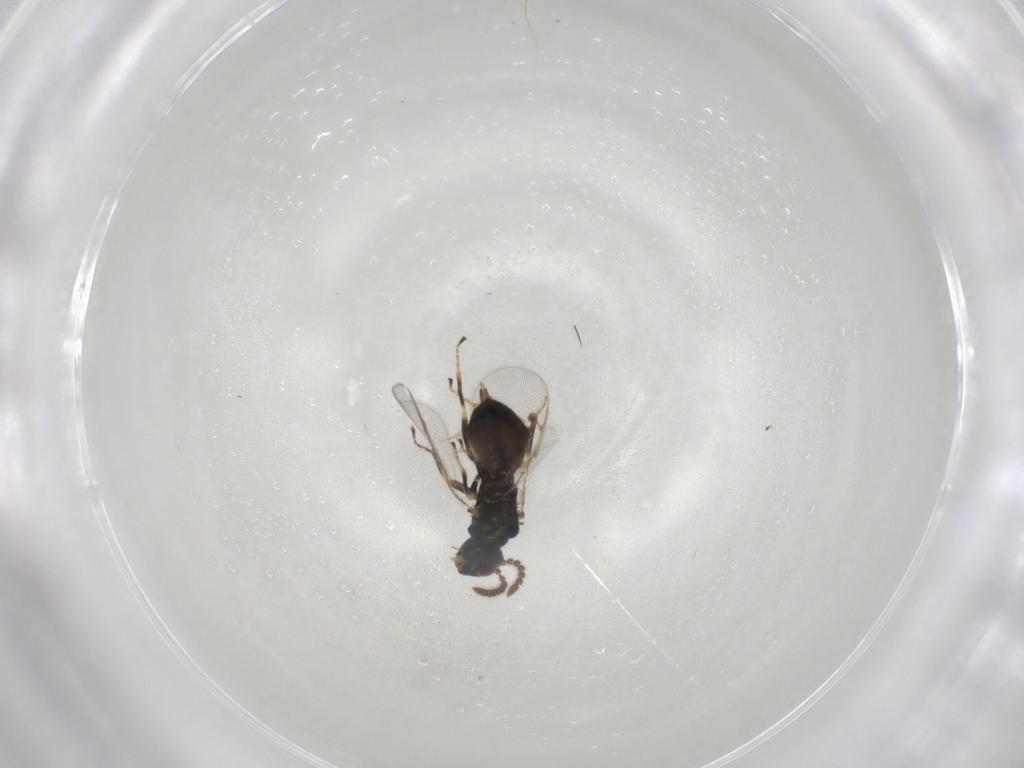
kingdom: Animalia
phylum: Arthropoda
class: Insecta
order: Hymenoptera
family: Pirenidae
